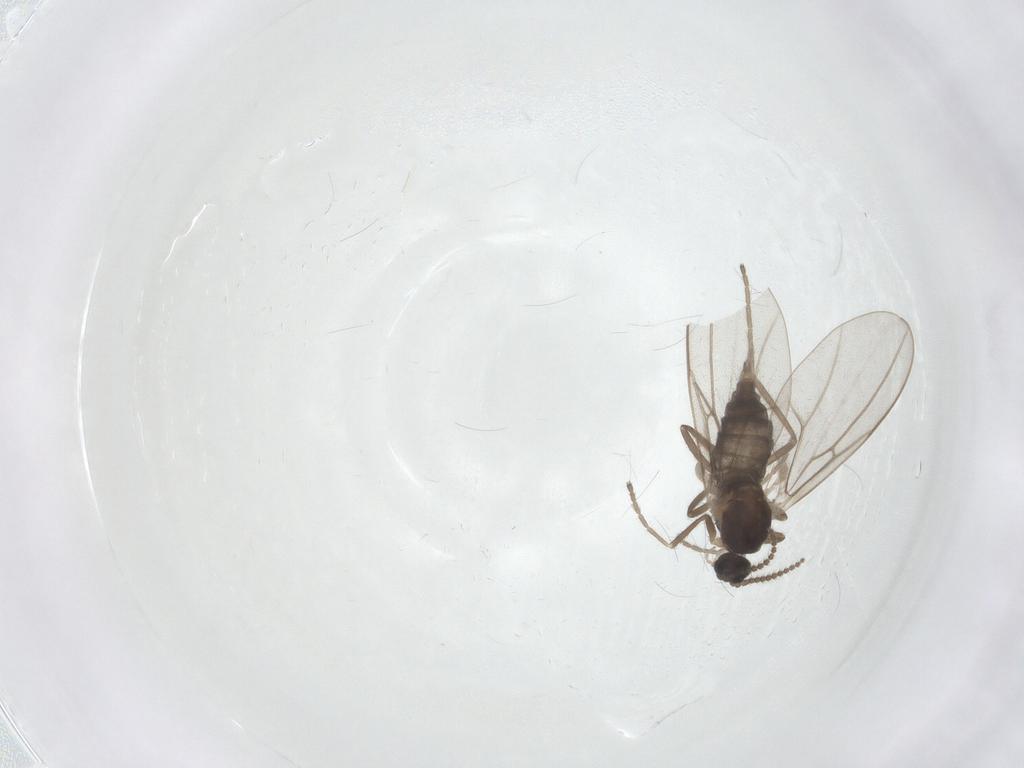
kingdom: Animalia
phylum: Arthropoda
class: Insecta
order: Diptera
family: Cecidomyiidae
